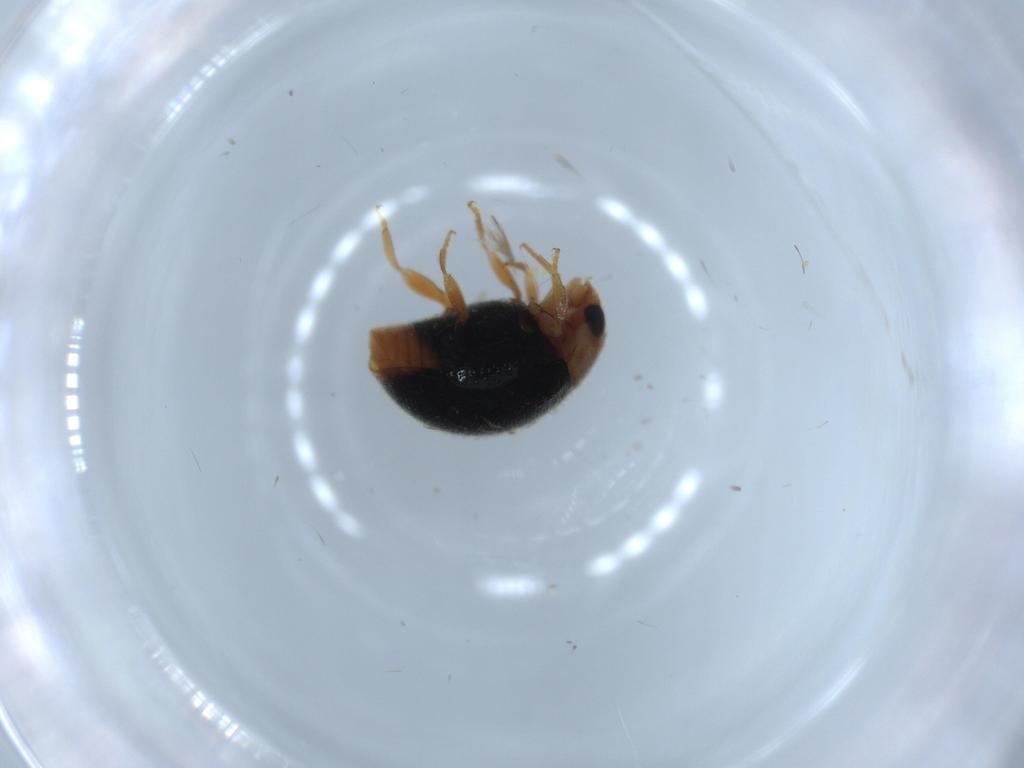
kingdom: Animalia
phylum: Arthropoda
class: Insecta
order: Coleoptera
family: Coccinellidae
